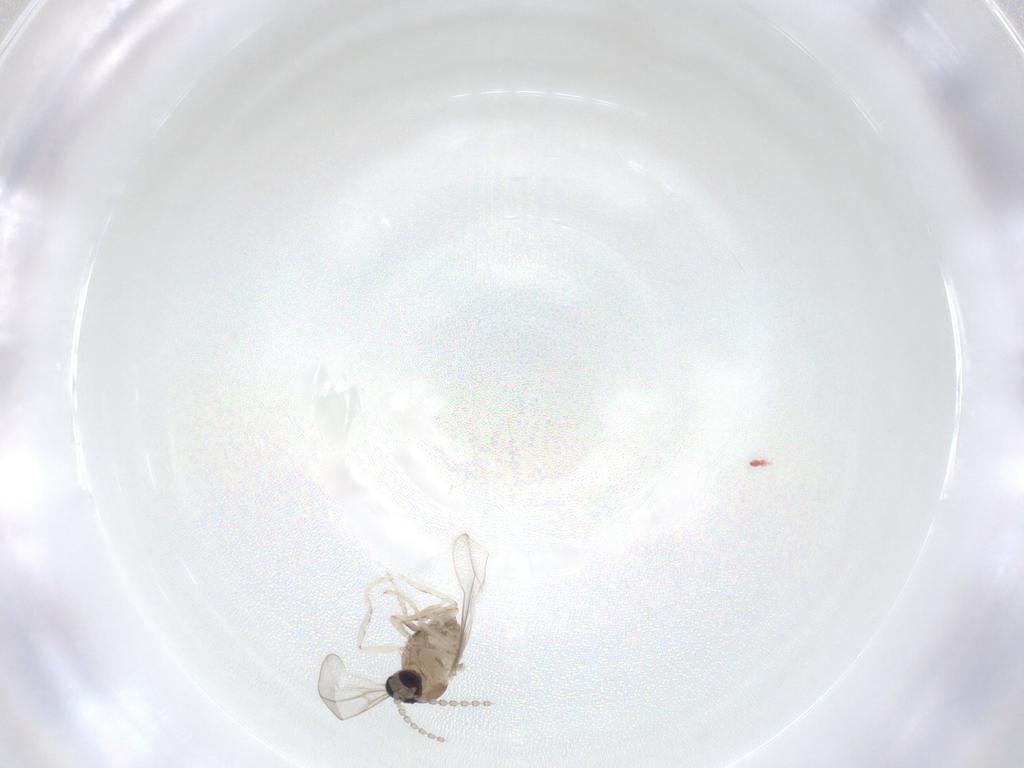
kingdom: Animalia
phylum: Arthropoda
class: Insecta
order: Diptera
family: Cecidomyiidae
